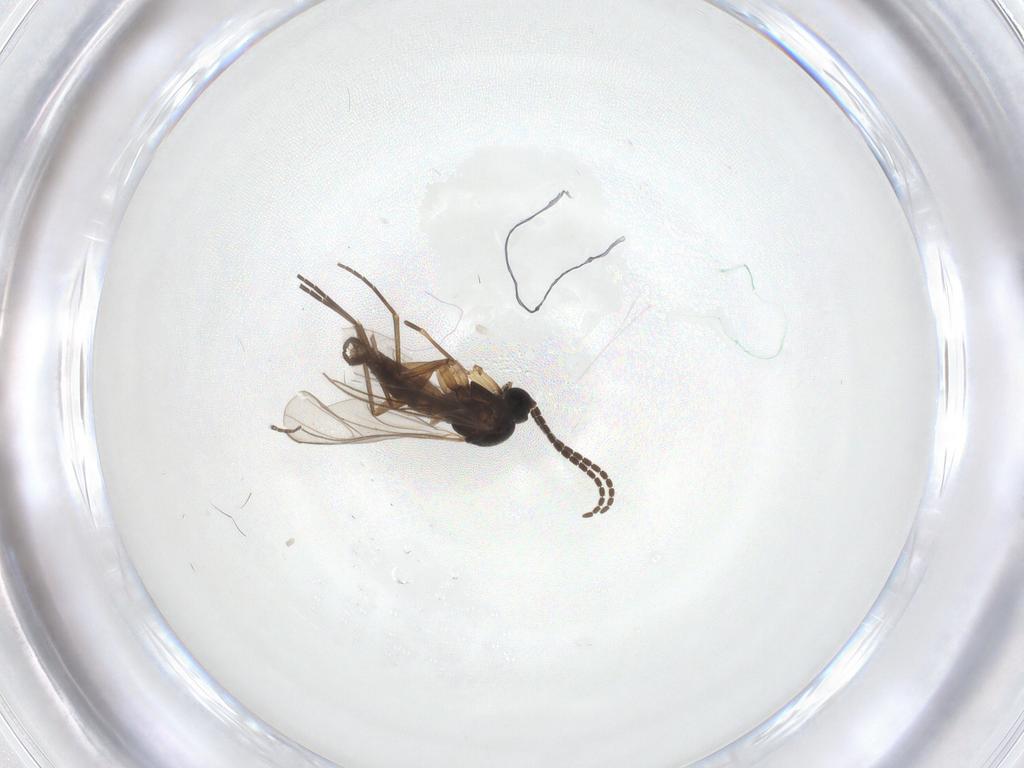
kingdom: Animalia
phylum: Arthropoda
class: Insecta
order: Diptera
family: Sciaridae
